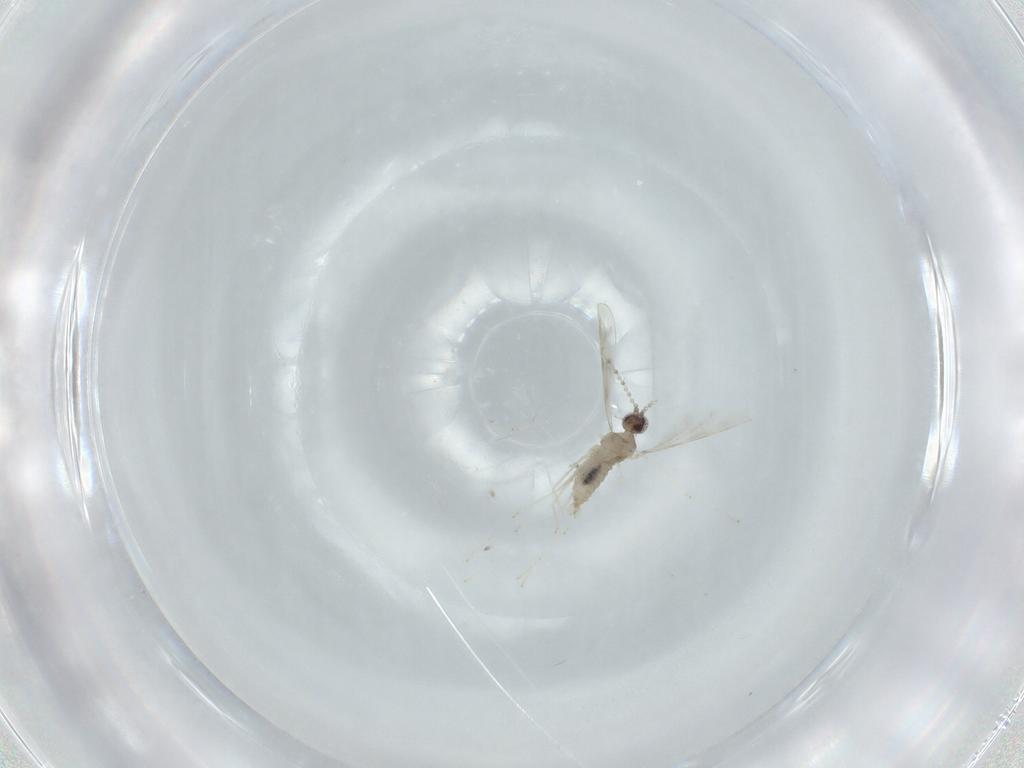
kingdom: Animalia
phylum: Arthropoda
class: Insecta
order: Diptera
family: Cecidomyiidae
